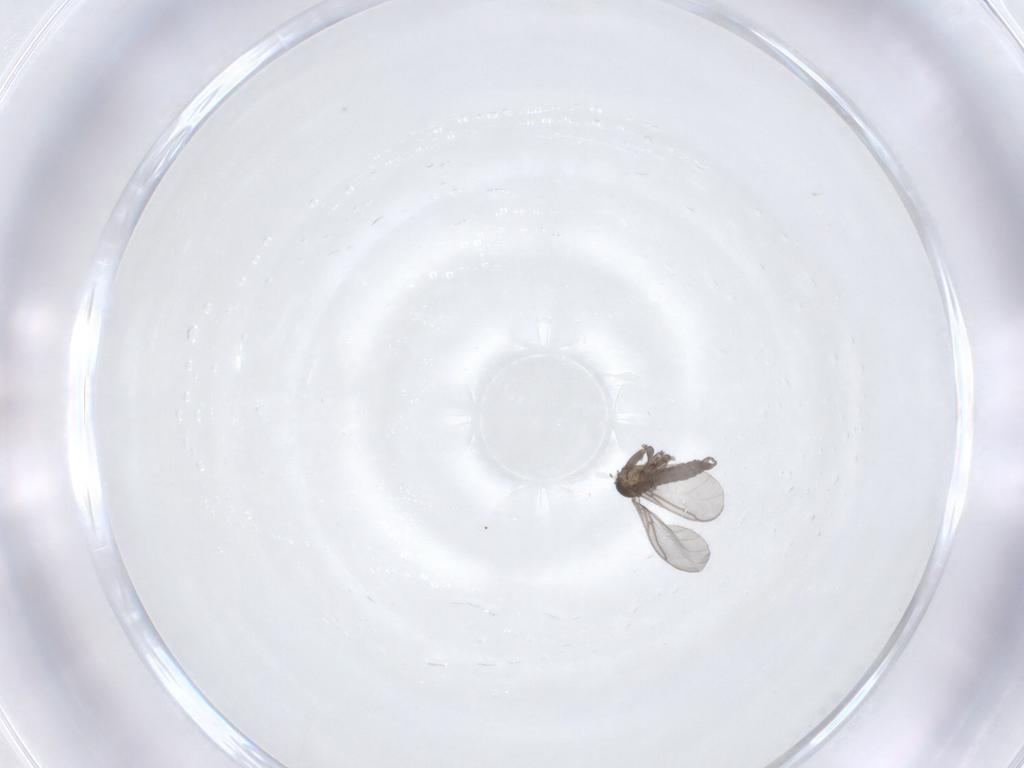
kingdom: Animalia
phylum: Arthropoda
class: Insecta
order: Diptera
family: Sciaridae
